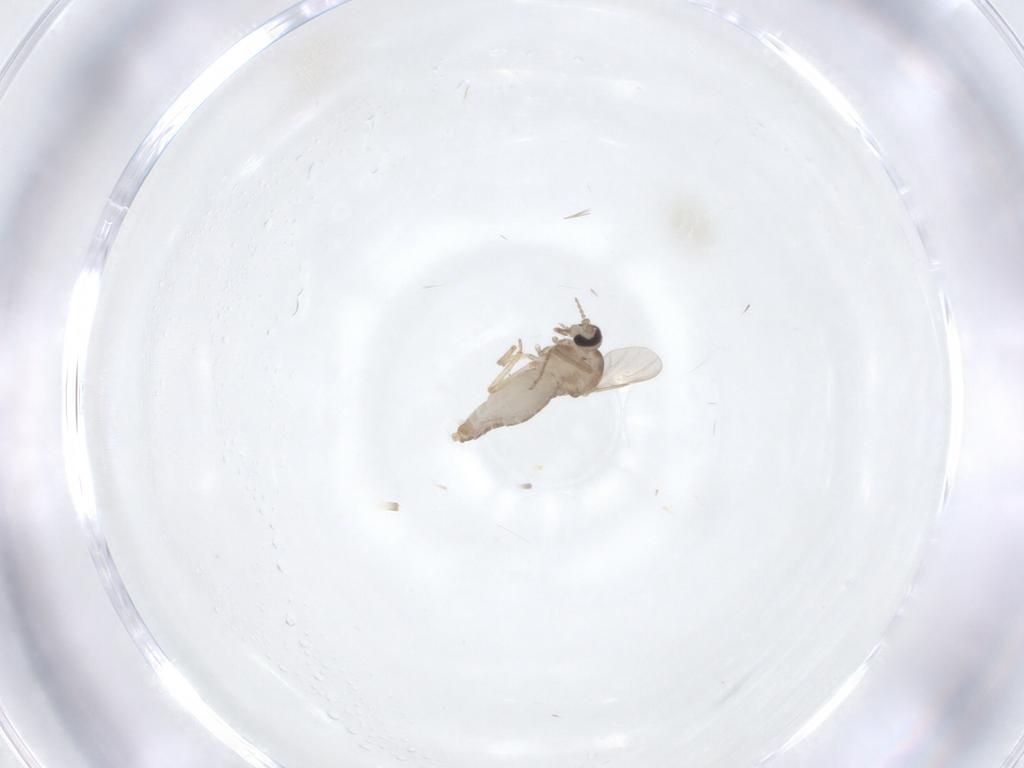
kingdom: Animalia
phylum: Arthropoda
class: Insecta
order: Diptera
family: Ceratopogonidae
